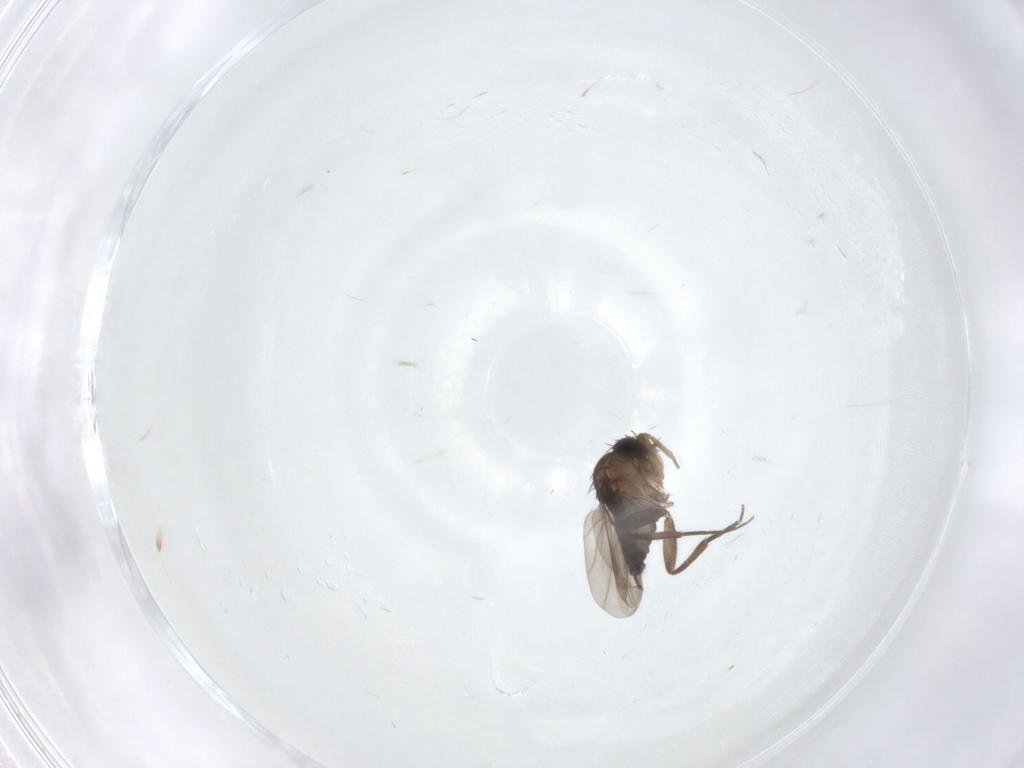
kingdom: Animalia
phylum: Arthropoda
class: Insecta
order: Diptera
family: Phoridae
